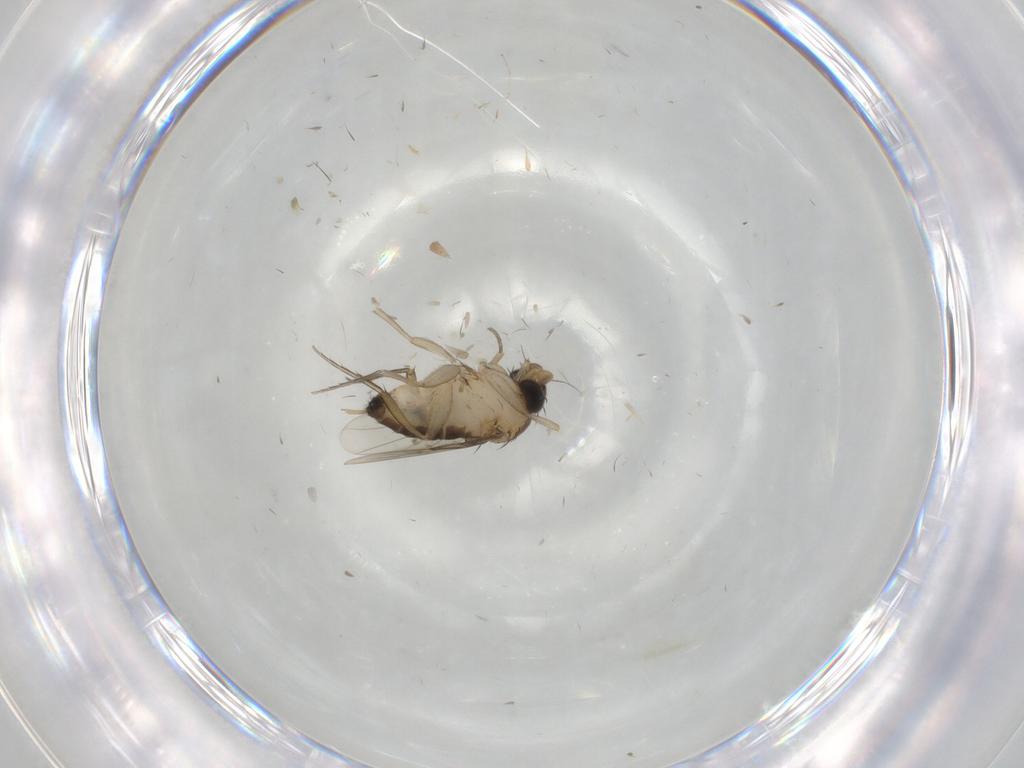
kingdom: Animalia
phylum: Arthropoda
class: Insecta
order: Diptera
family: Phoridae
